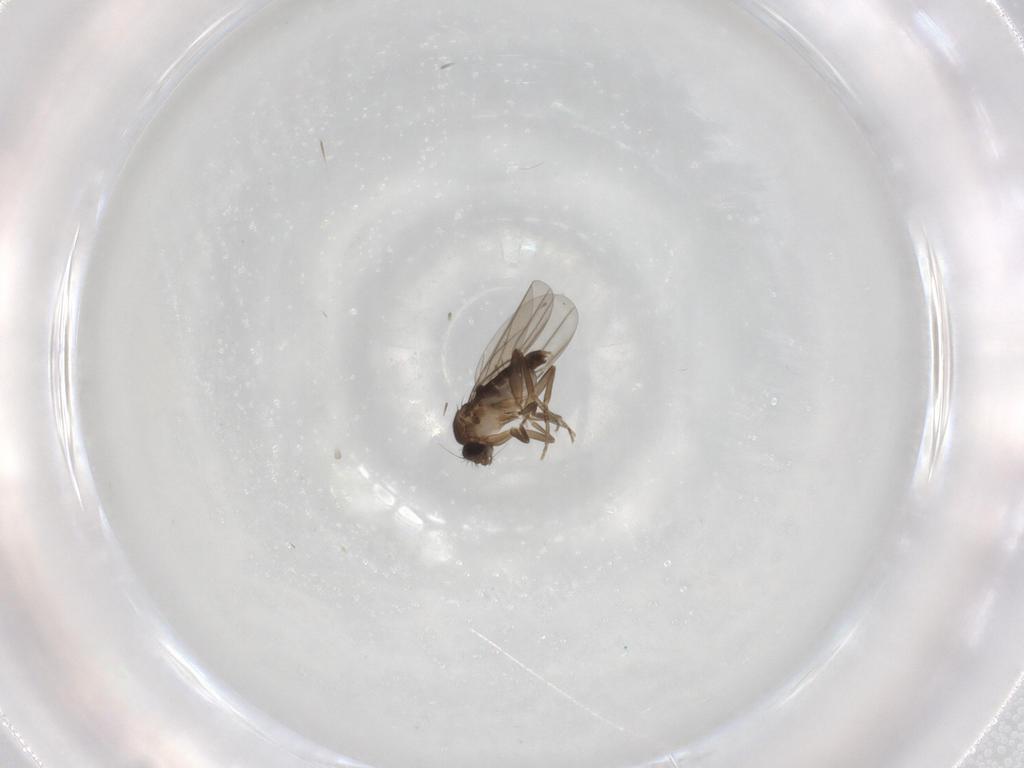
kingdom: Animalia
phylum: Arthropoda
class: Insecta
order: Diptera
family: Phoridae
